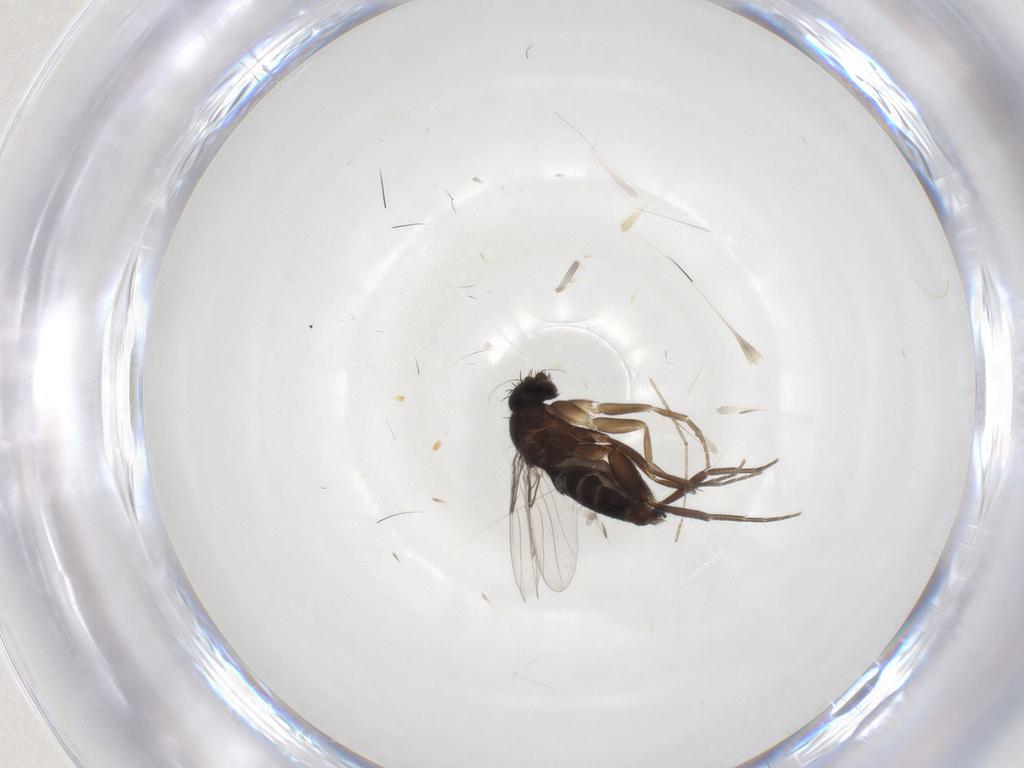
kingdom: Animalia
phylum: Arthropoda
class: Insecta
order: Diptera
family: Phoridae
